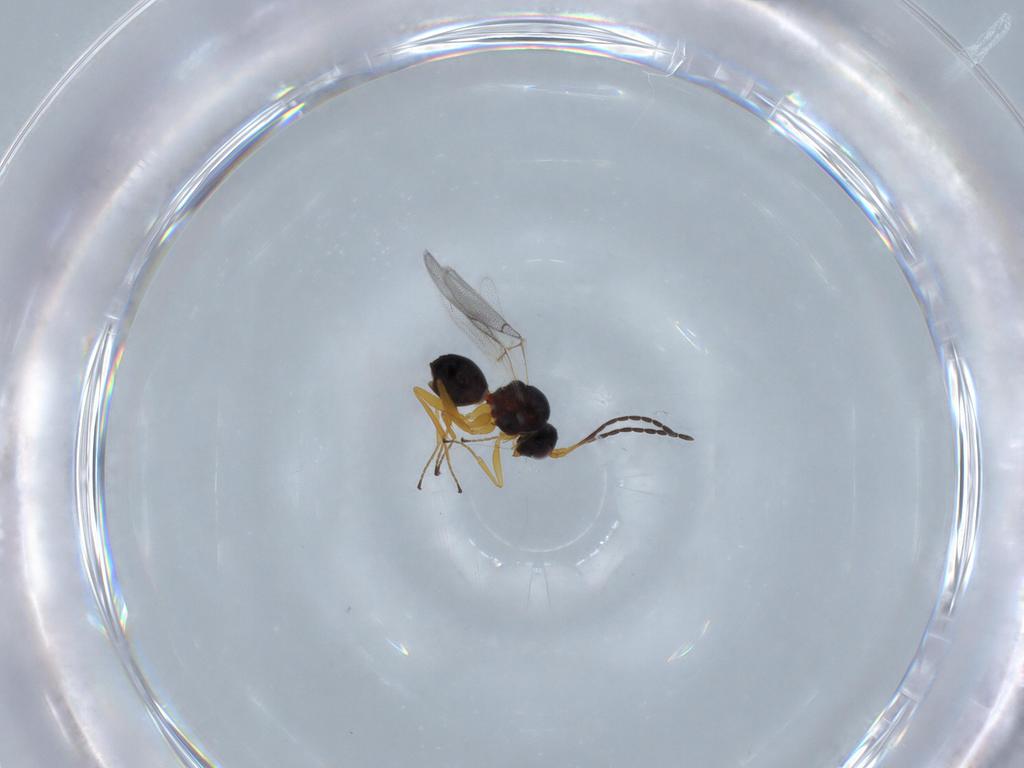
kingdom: Animalia
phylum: Arthropoda
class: Insecta
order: Hymenoptera
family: Figitidae
